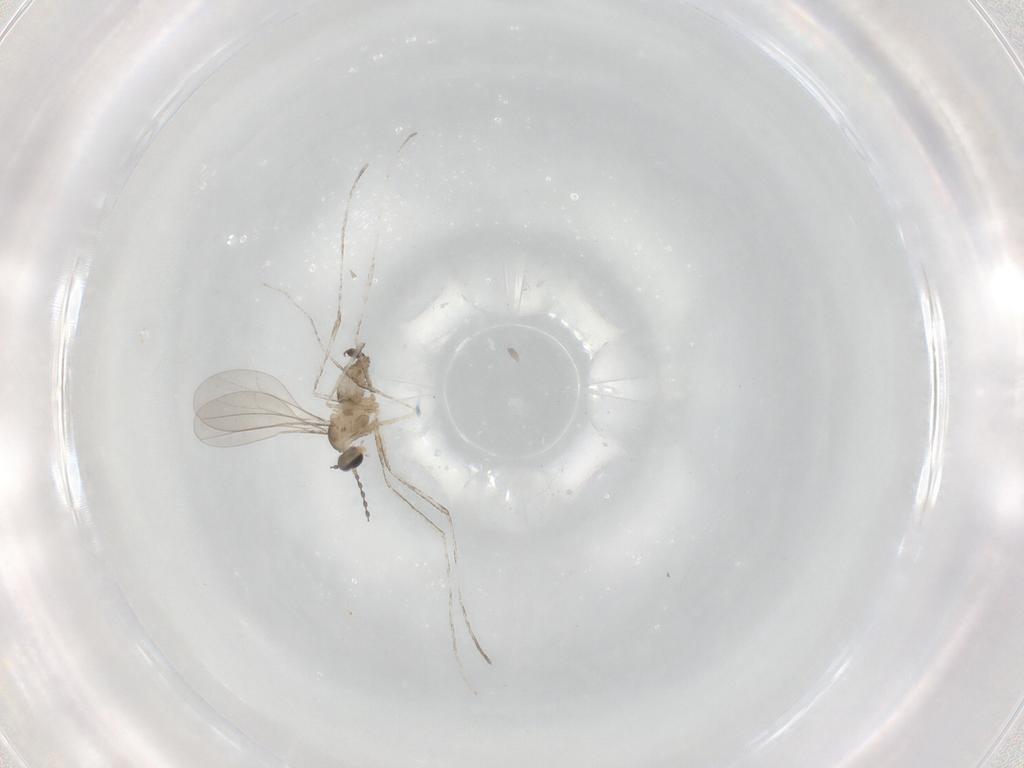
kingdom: Animalia
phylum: Arthropoda
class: Insecta
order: Diptera
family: Cecidomyiidae
